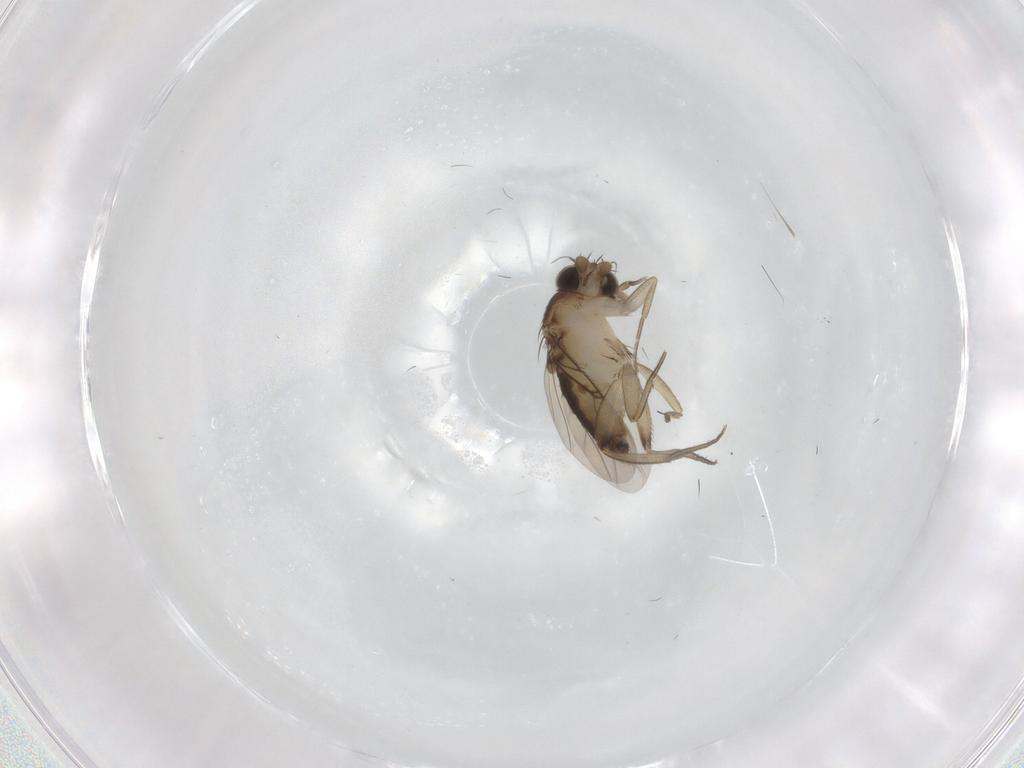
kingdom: Animalia
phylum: Arthropoda
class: Insecta
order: Diptera
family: Phoridae
